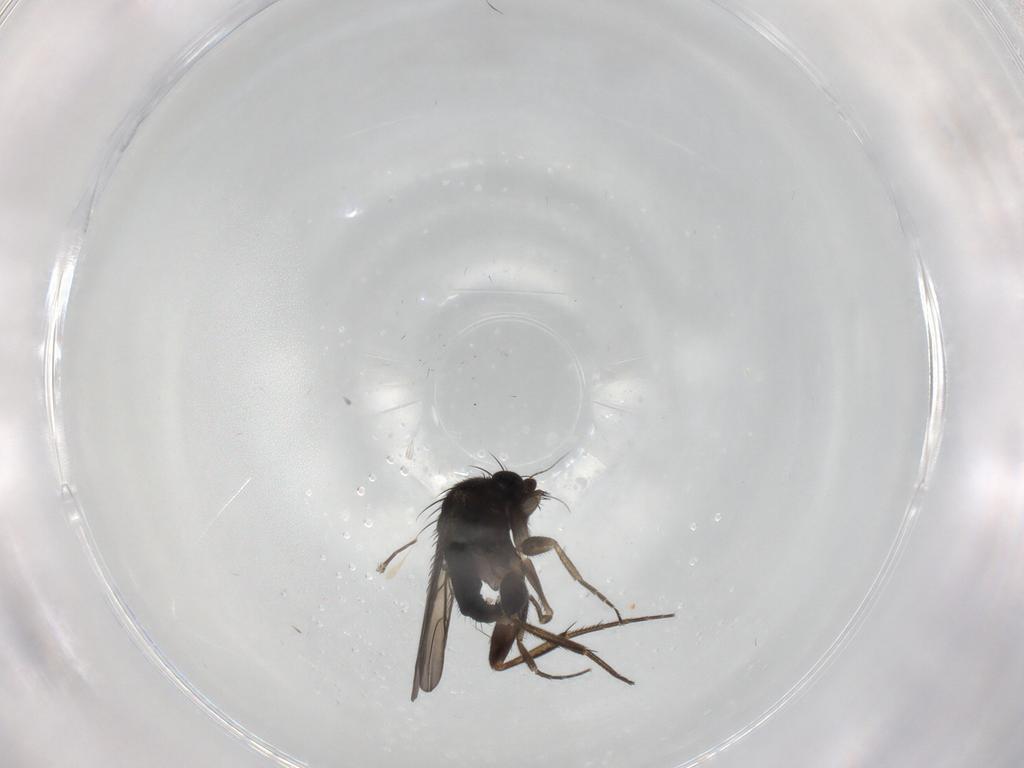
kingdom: Animalia
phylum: Arthropoda
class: Insecta
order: Diptera
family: Phoridae
